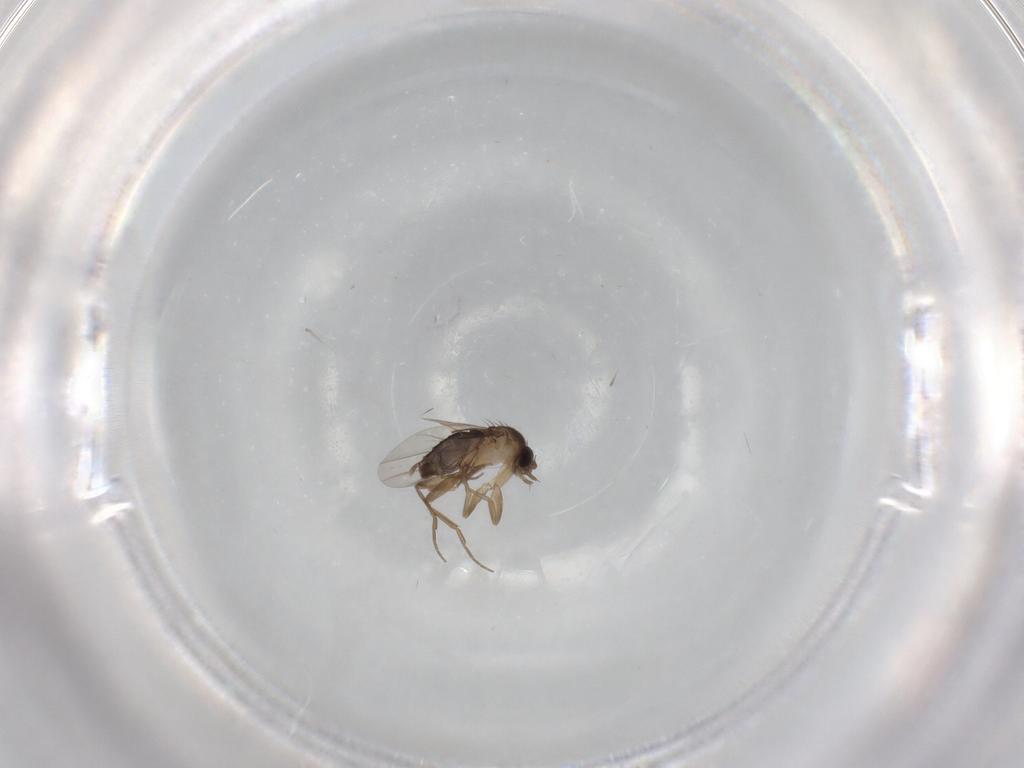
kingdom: Animalia
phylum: Arthropoda
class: Insecta
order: Diptera
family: Phoridae
